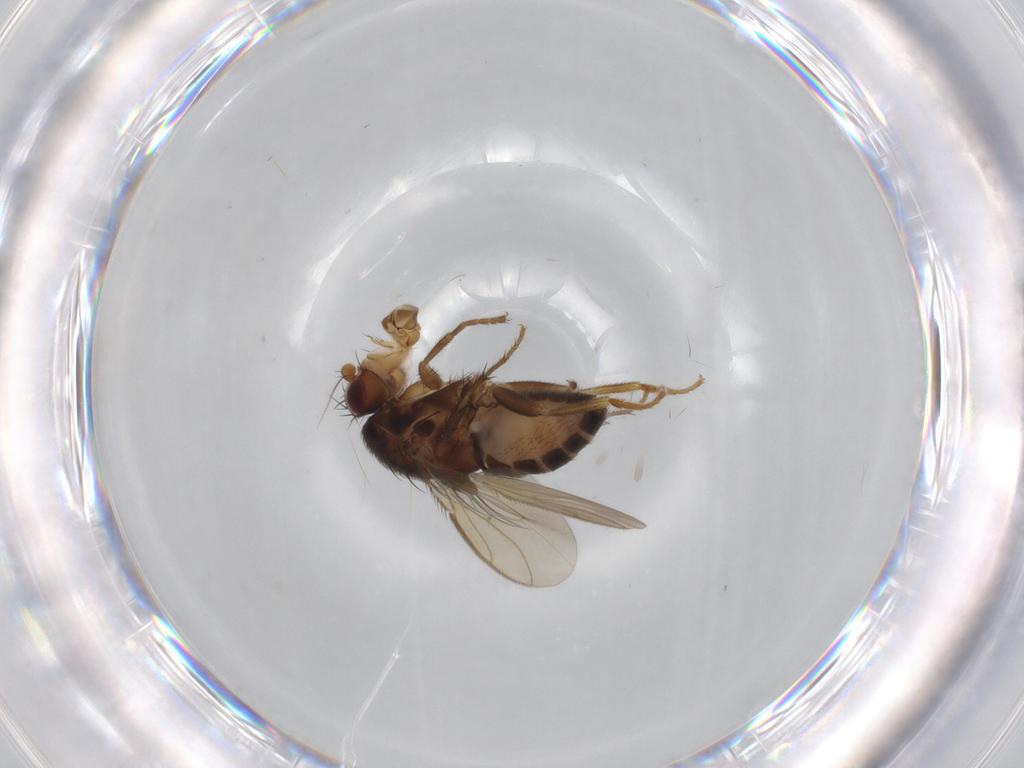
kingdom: Animalia
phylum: Arthropoda
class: Insecta
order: Diptera
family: Sphaeroceridae
